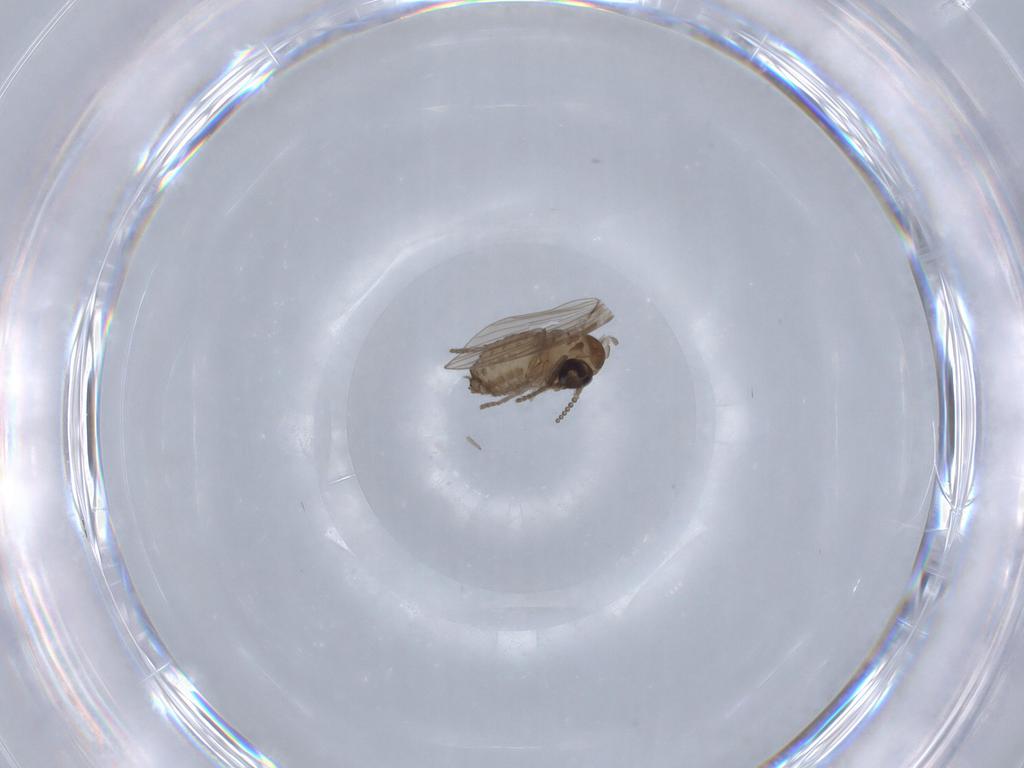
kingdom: Animalia
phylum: Arthropoda
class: Insecta
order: Diptera
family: Psychodidae
